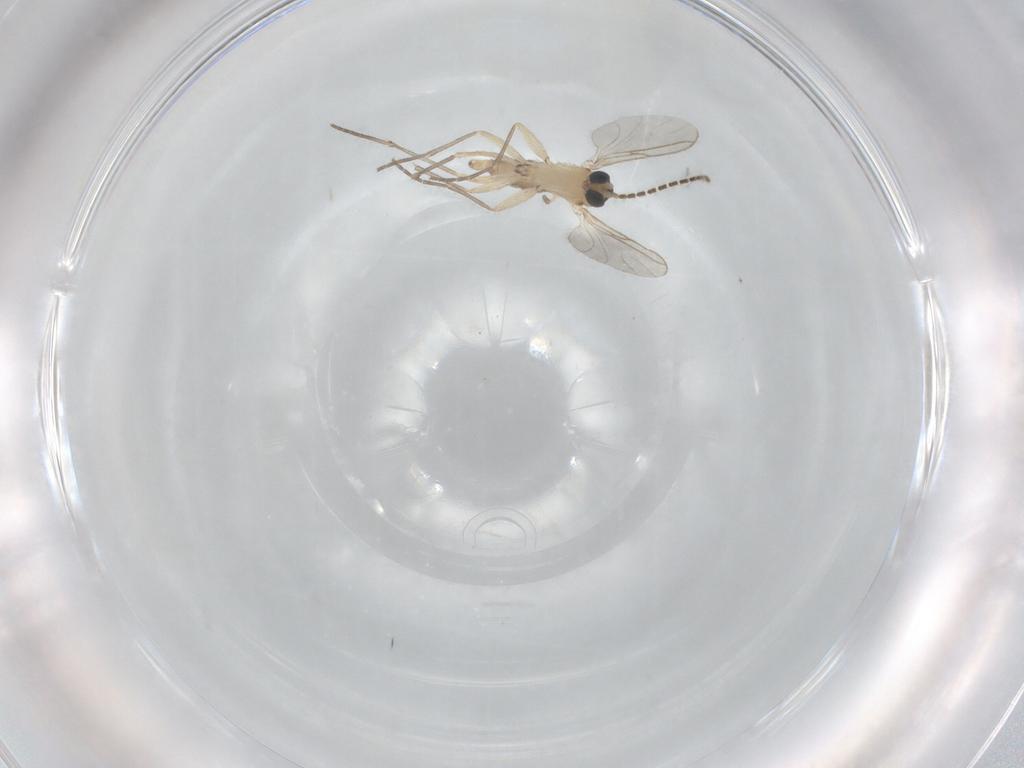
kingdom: Animalia
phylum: Arthropoda
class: Insecta
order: Diptera
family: Sciaridae
